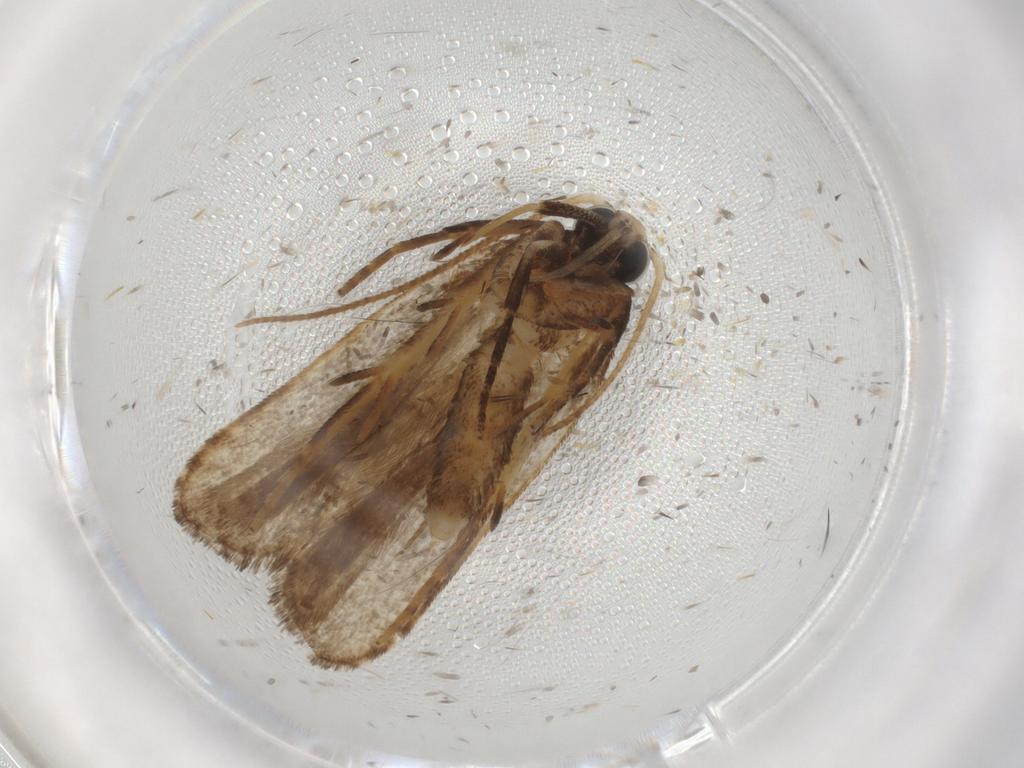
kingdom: Animalia
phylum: Arthropoda
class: Insecta
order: Lepidoptera
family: Gelechiidae
